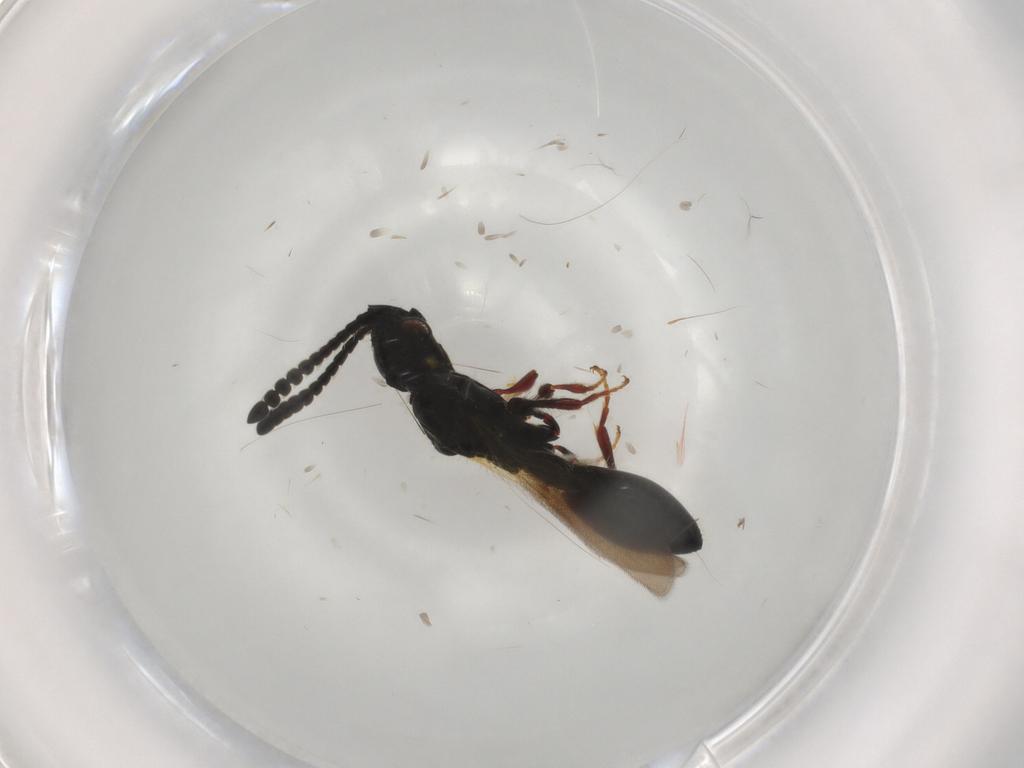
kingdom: Animalia
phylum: Arthropoda
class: Insecta
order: Hymenoptera
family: Diapriidae
